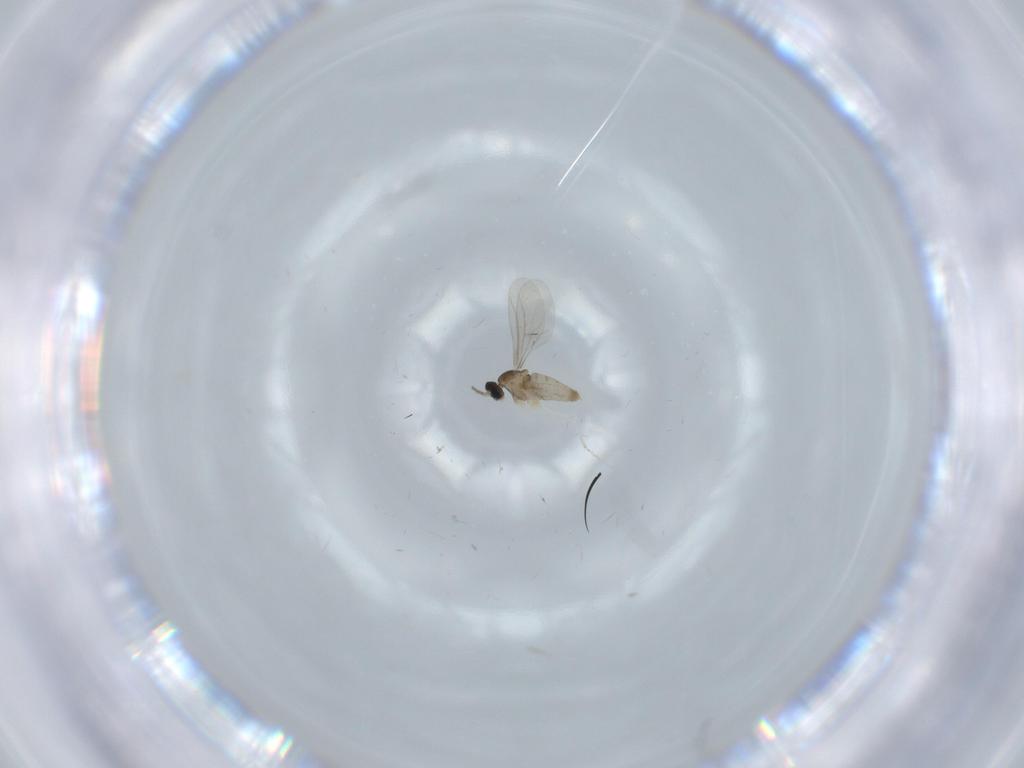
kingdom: Animalia
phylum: Arthropoda
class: Insecta
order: Diptera
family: Cecidomyiidae
